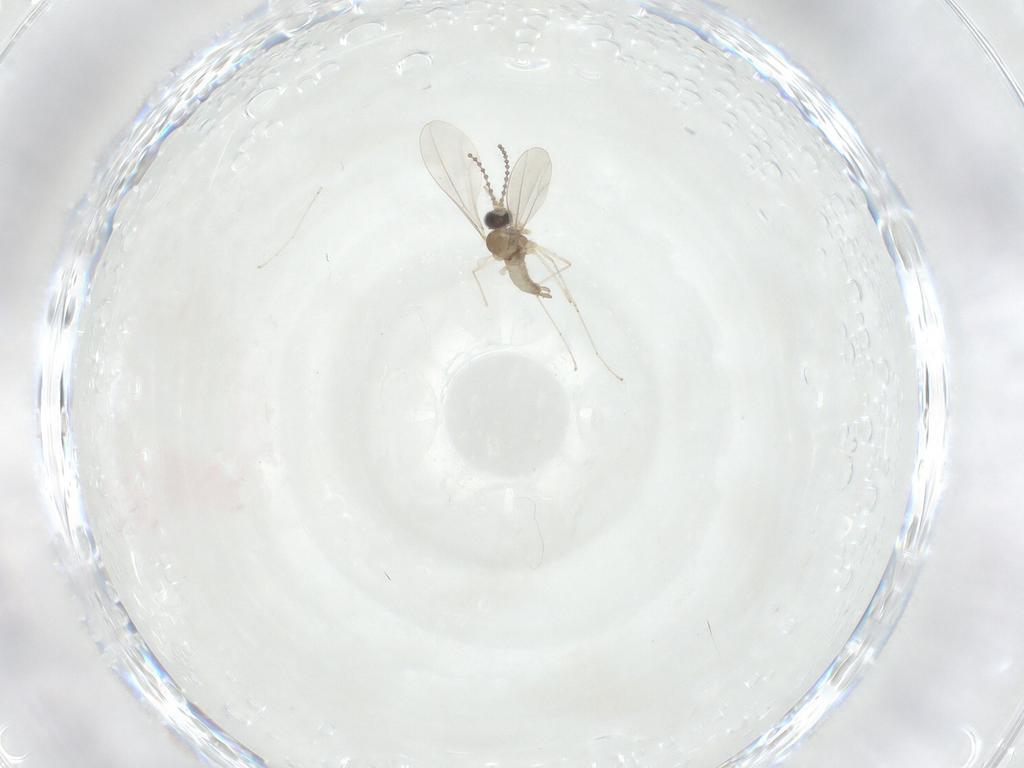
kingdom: Animalia
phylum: Arthropoda
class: Insecta
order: Diptera
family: Cecidomyiidae
